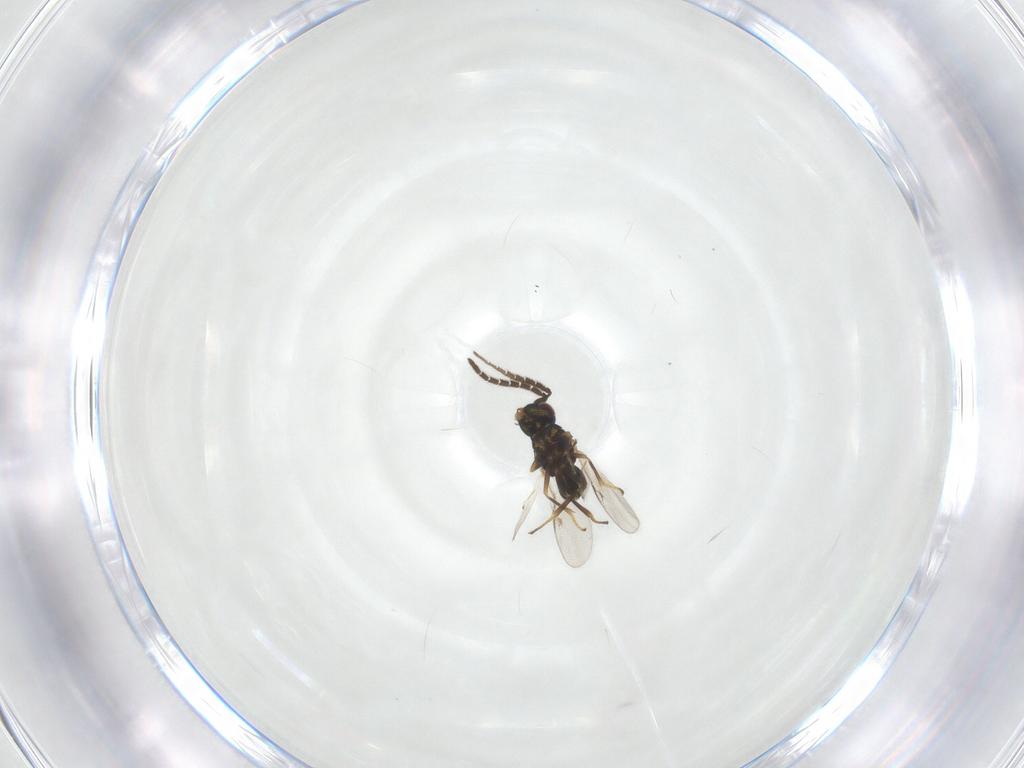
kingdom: Animalia
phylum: Arthropoda
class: Insecta
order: Hymenoptera
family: Encyrtidae
